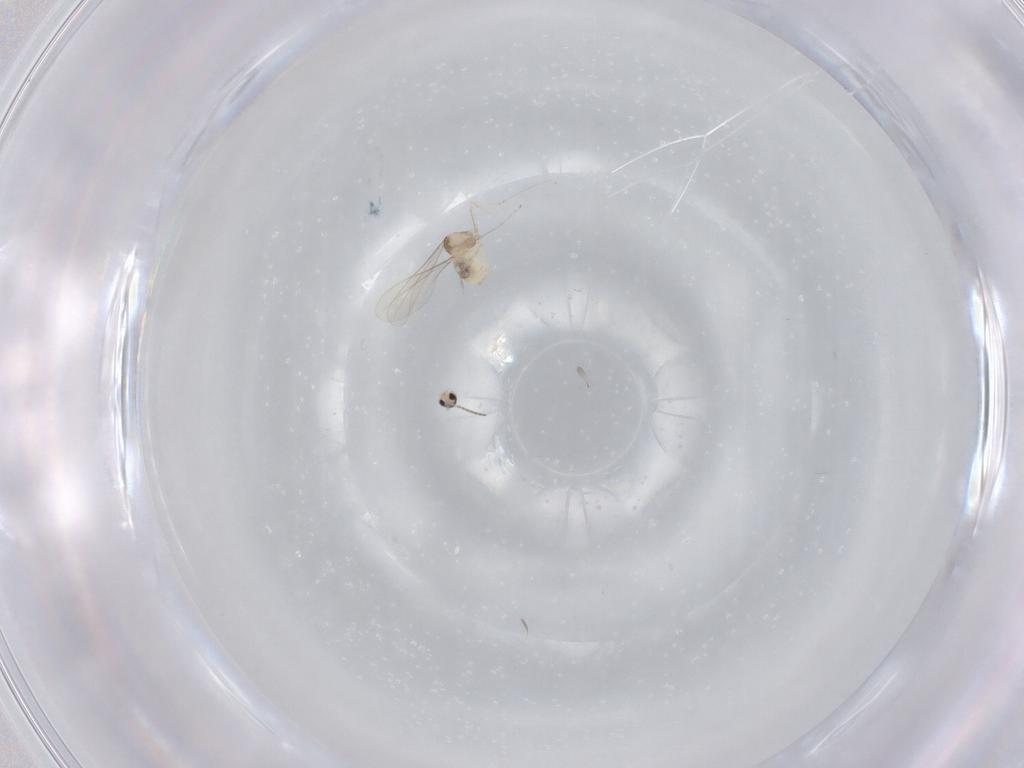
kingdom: Animalia
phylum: Arthropoda
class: Insecta
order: Diptera
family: Cecidomyiidae
